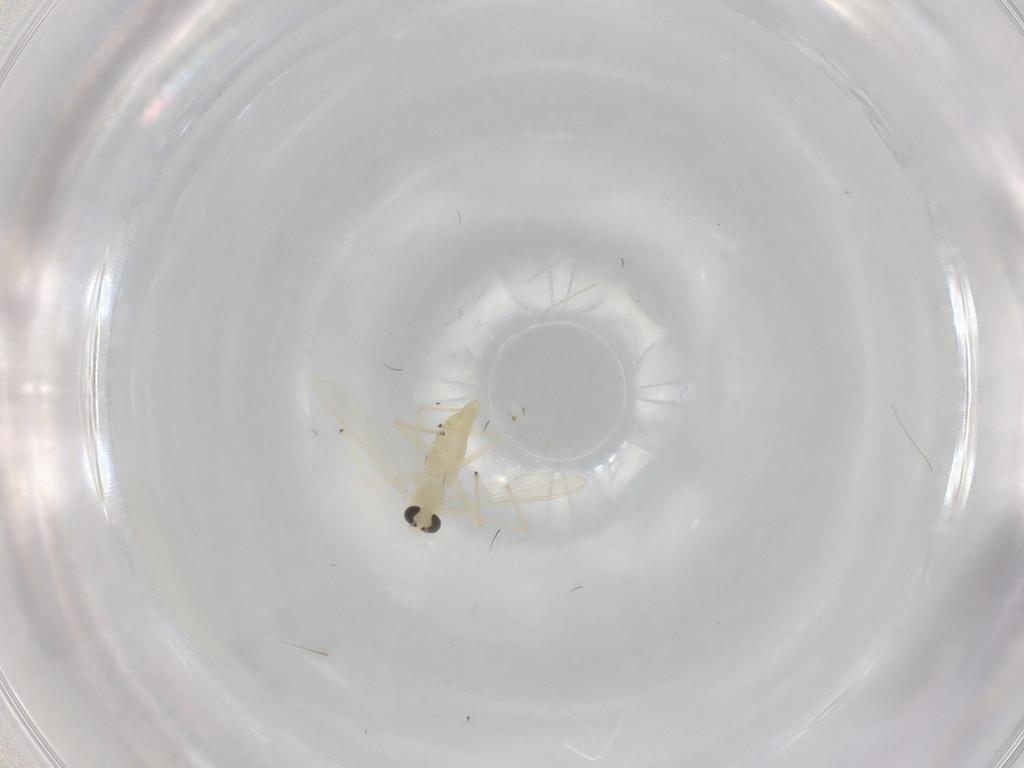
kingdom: Animalia
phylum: Arthropoda
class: Insecta
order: Diptera
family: Chironomidae
